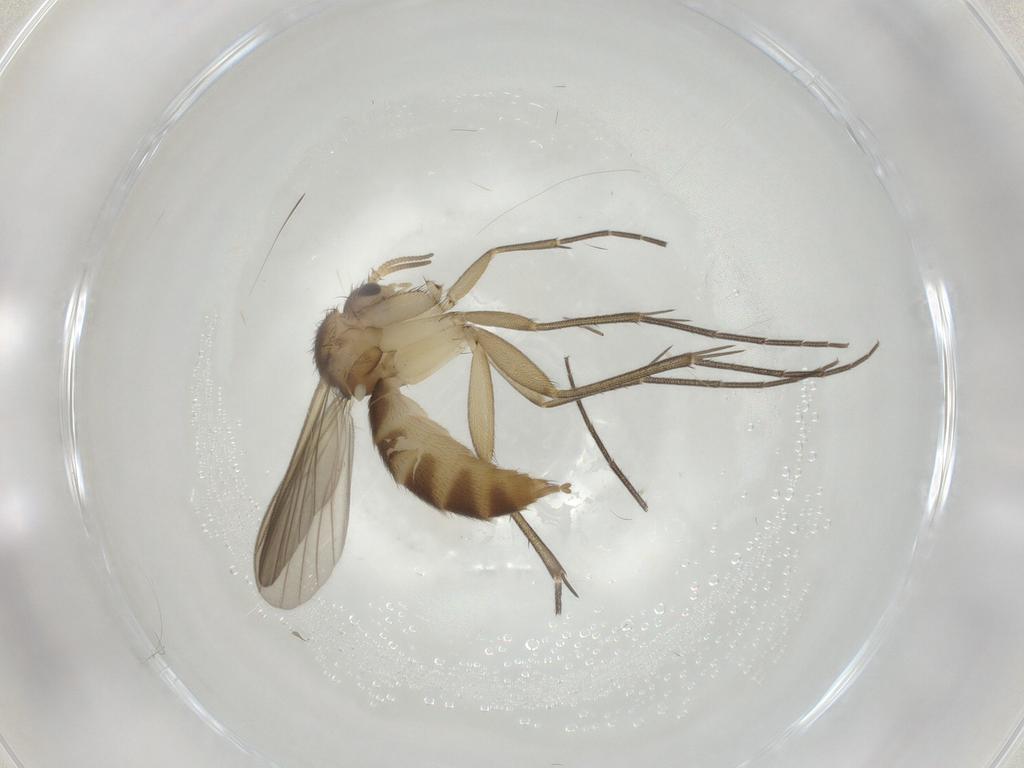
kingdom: Animalia
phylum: Arthropoda
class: Insecta
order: Diptera
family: Mycetophilidae
